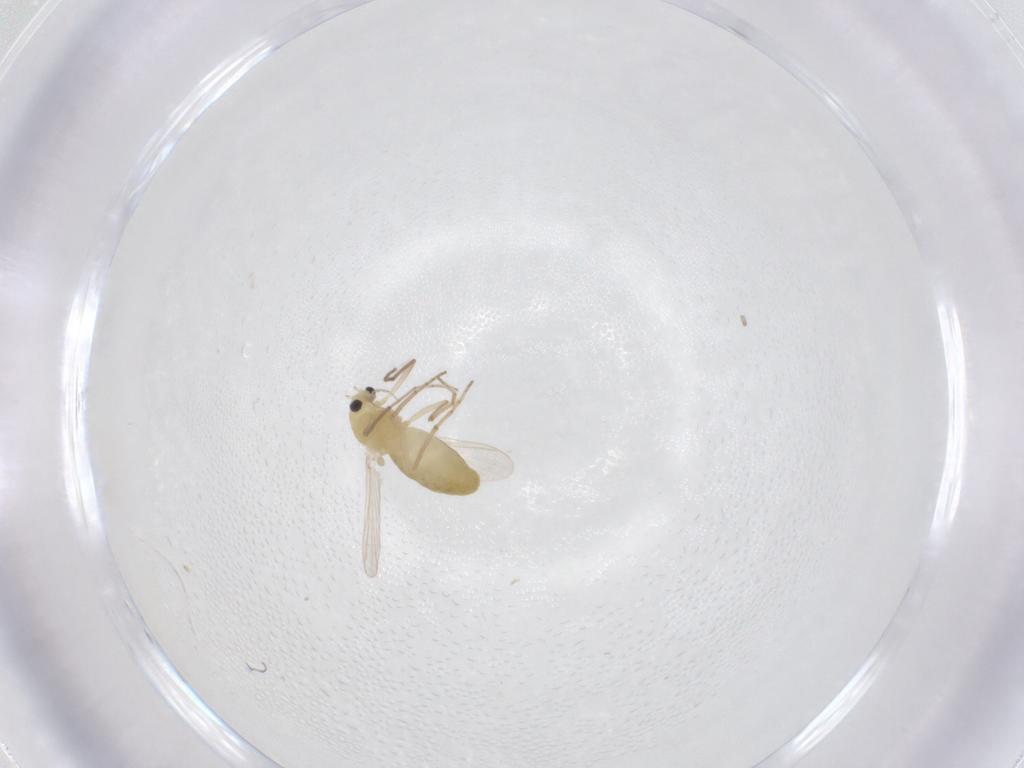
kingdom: Animalia
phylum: Arthropoda
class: Insecta
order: Diptera
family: Chironomidae
